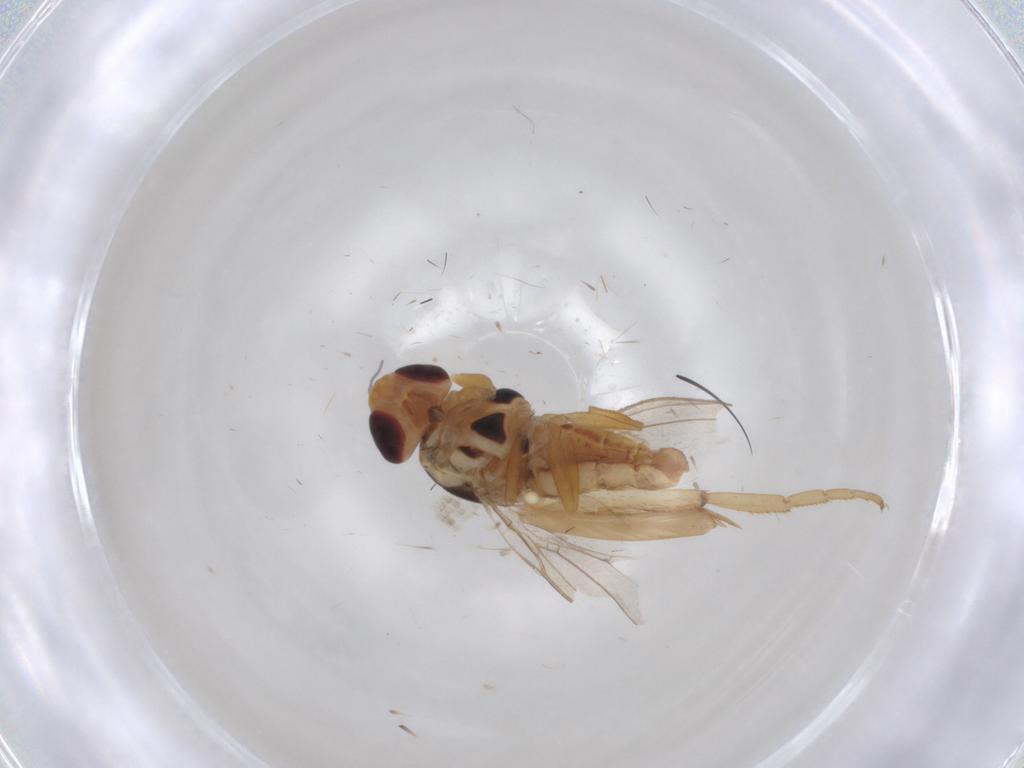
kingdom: Animalia
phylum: Arthropoda
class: Insecta
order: Diptera
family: Chloropidae
